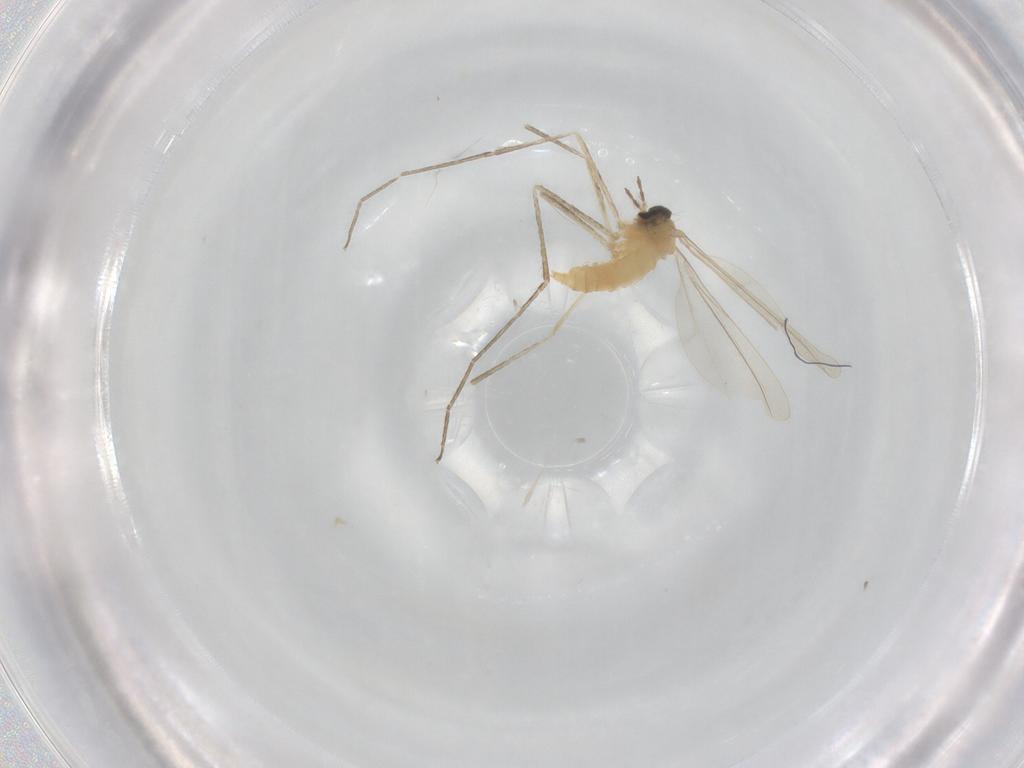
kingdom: Animalia
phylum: Arthropoda
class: Insecta
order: Diptera
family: Cecidomyiidae
